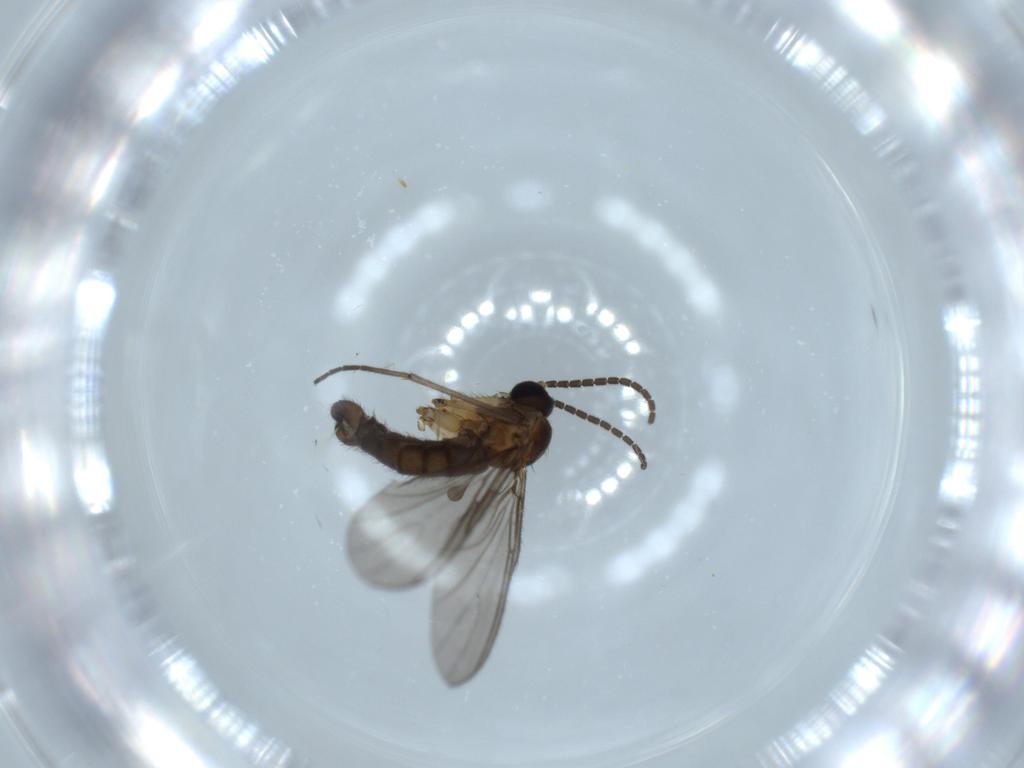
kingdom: Animalia
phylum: Arthropoda
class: Insecta
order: Diptera
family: Sciaridae
